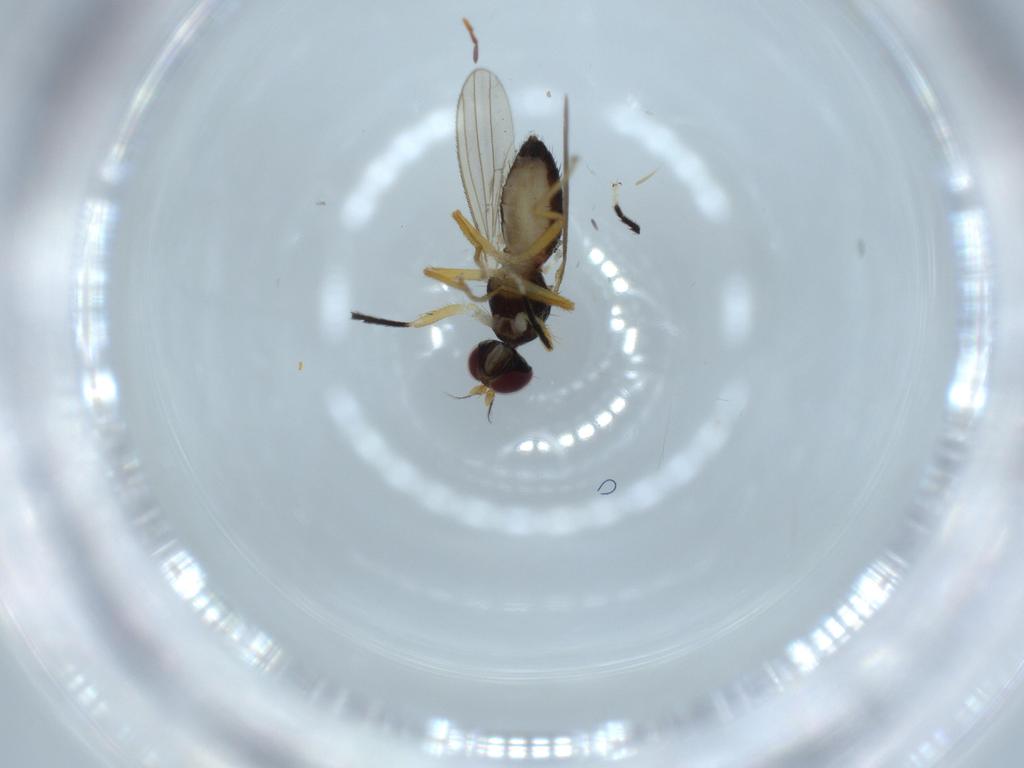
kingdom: Animalia
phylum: Arthropoda
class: Insecta
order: Diptera
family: Anthomyzidae
